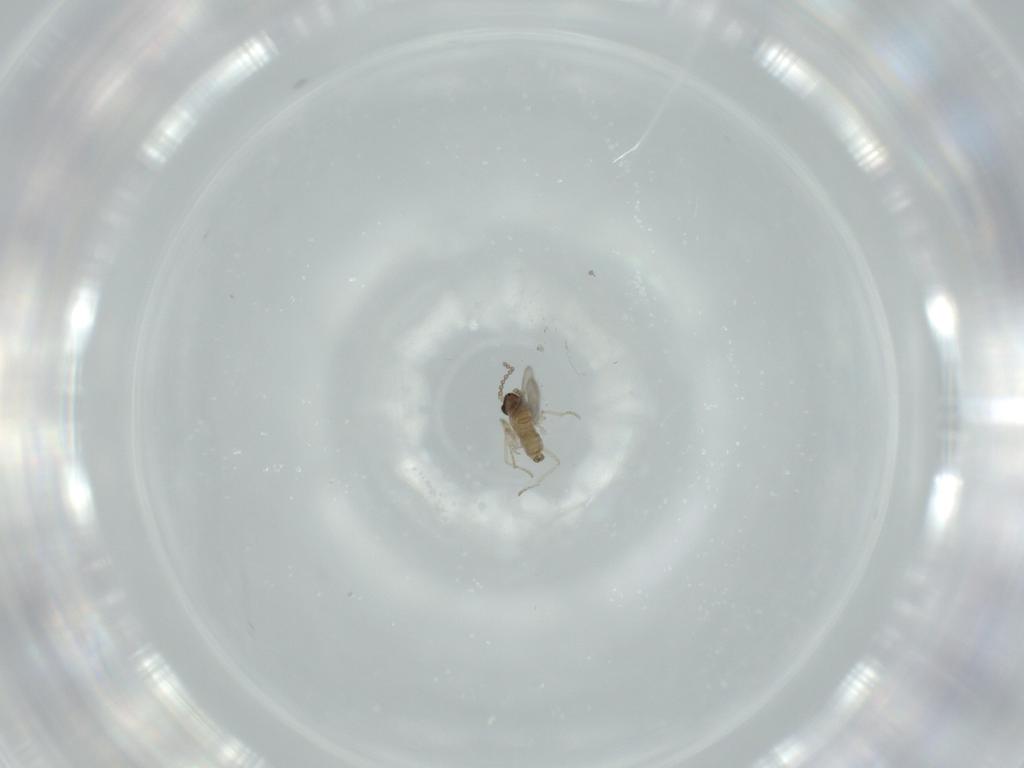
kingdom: Animalia
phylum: Arthropoda
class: Insecta
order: Diptera
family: Cecidomyiidae
